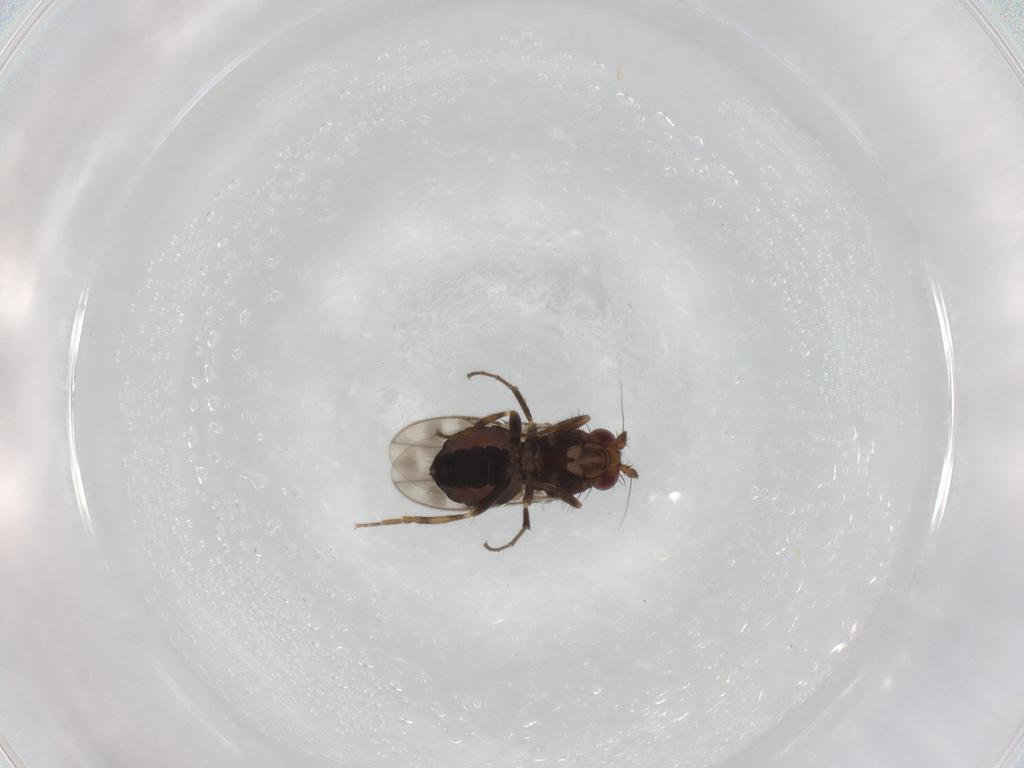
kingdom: Animalia
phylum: Arthropoda
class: Insecta
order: Diptera
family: Sphaeroceridae
